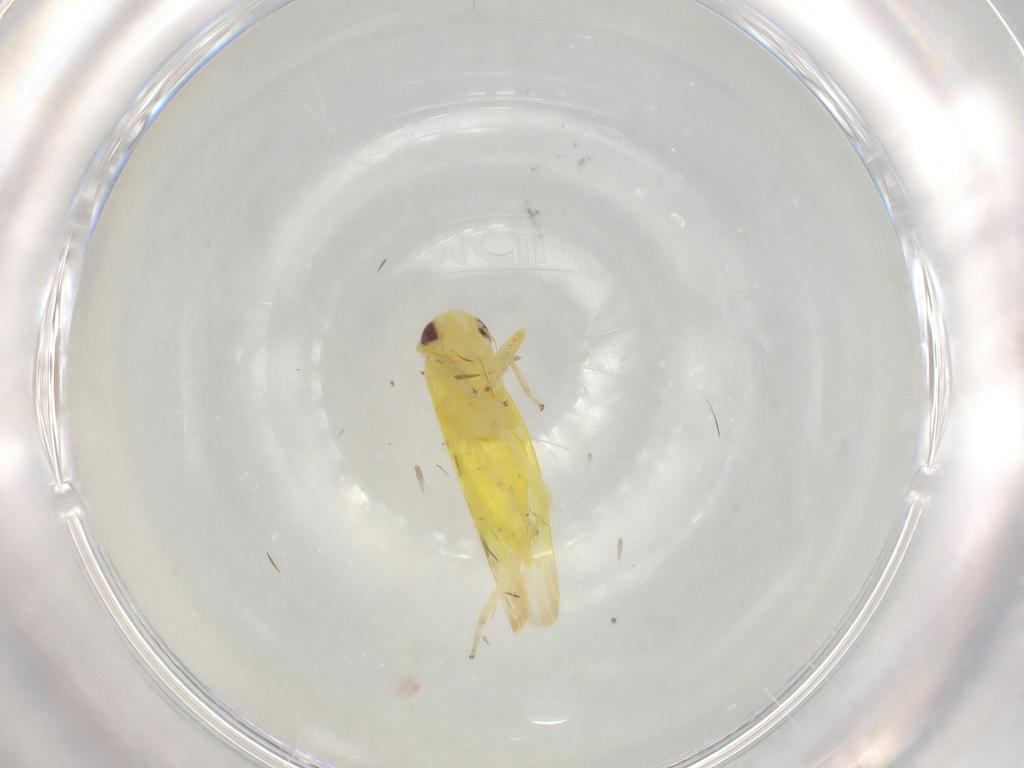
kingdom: Animalia
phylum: Arthropoda
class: Insecta
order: Hemiptera
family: Cicadellidae
